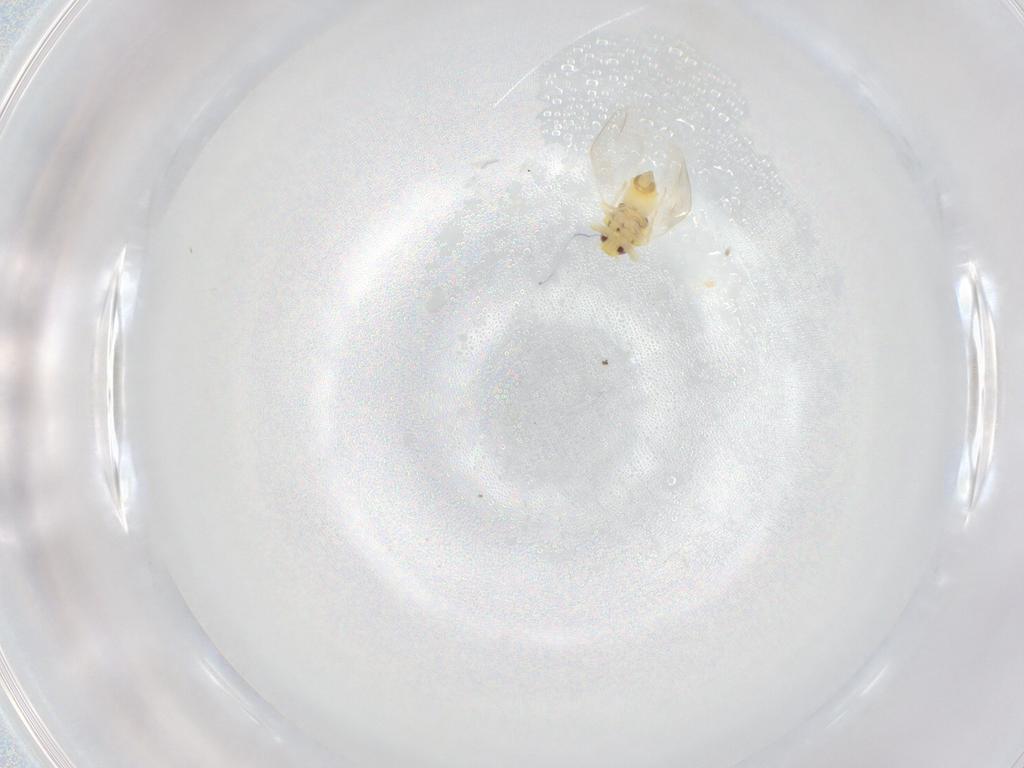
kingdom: Animalia
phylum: Arthropoda
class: Insecta
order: Hemiptera
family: Aleyrodidae
